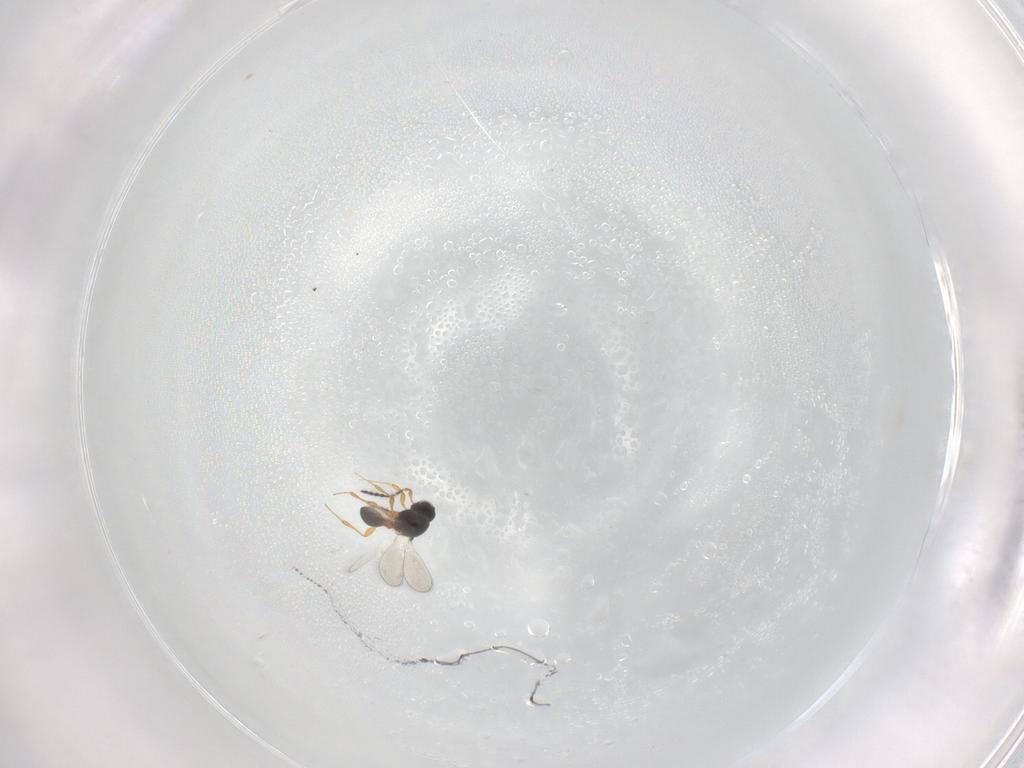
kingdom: Animalia
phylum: Arthropoda
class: Insecta
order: Hymenoptera
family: Platygastridae
